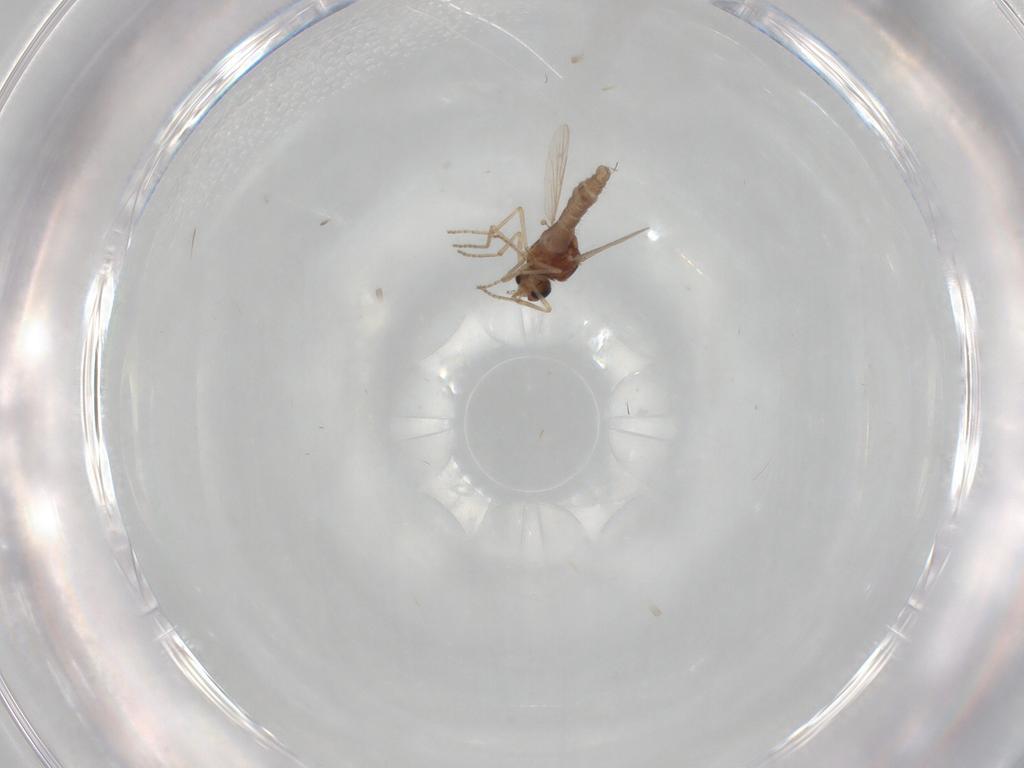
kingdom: Animalia
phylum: Arthropoda
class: Insecta
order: Diptera
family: Ceratopogonidae
